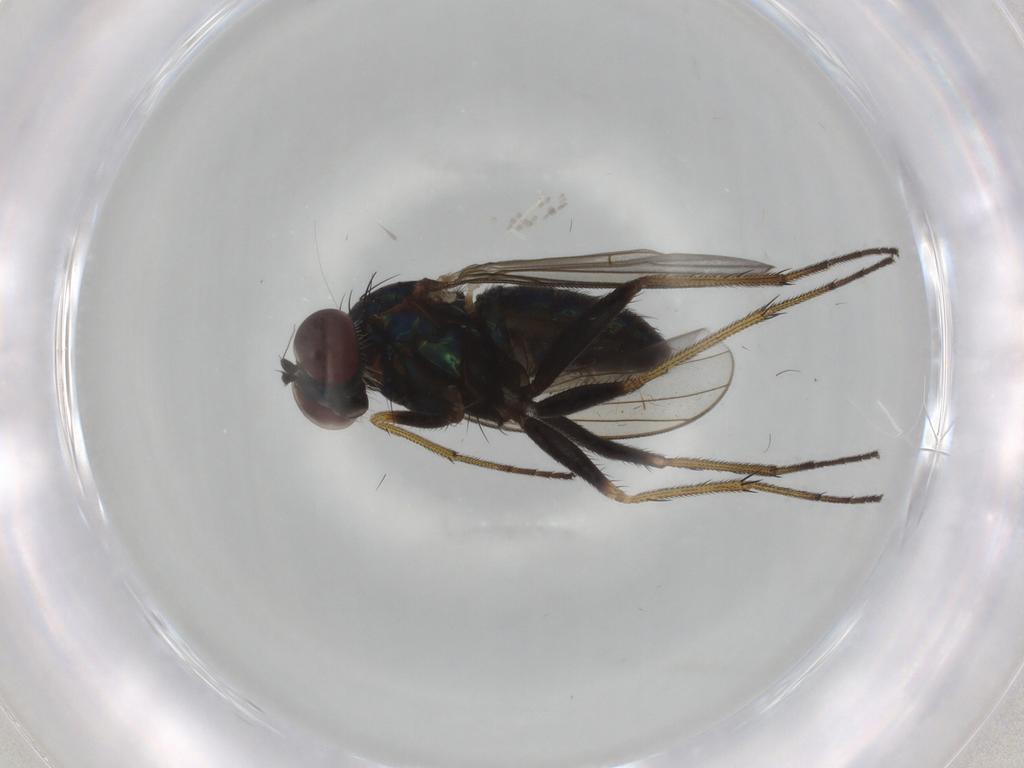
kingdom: Animalia
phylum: Arthropoda
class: Insecta
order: Diptera
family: Dolichopodidae
